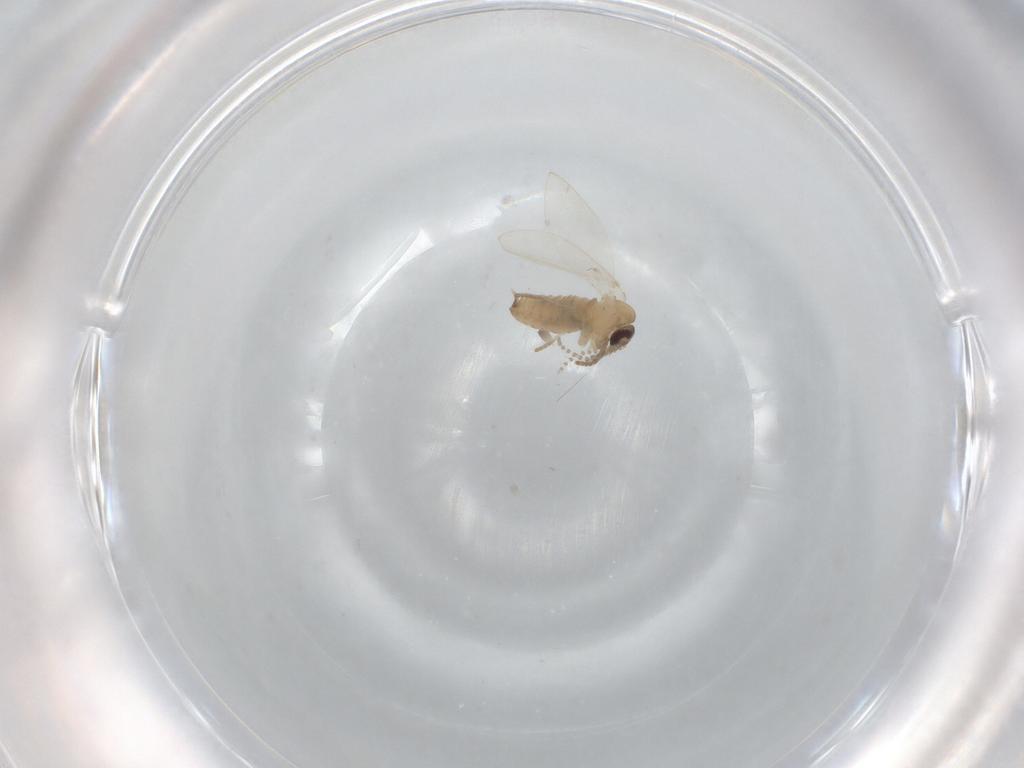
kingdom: Animalia
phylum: Arthropoda
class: Insecta
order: Diptera
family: Psychodidae
